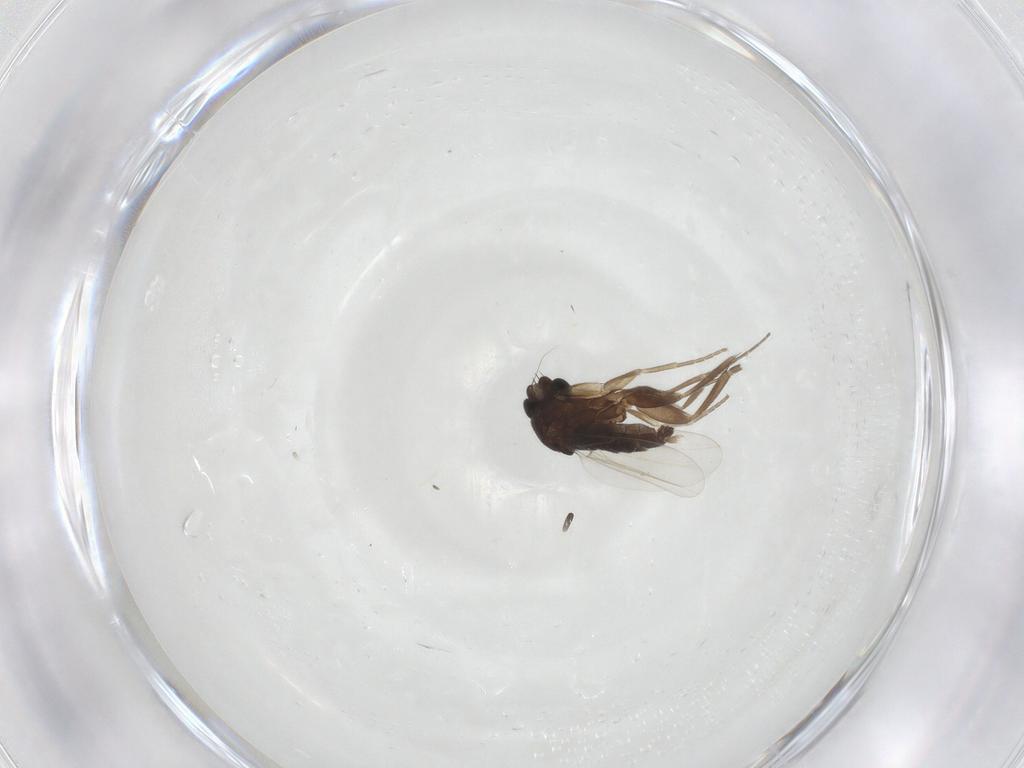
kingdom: Animalia
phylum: Arthropoda
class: Insecta
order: Diptera
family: Phoridae
